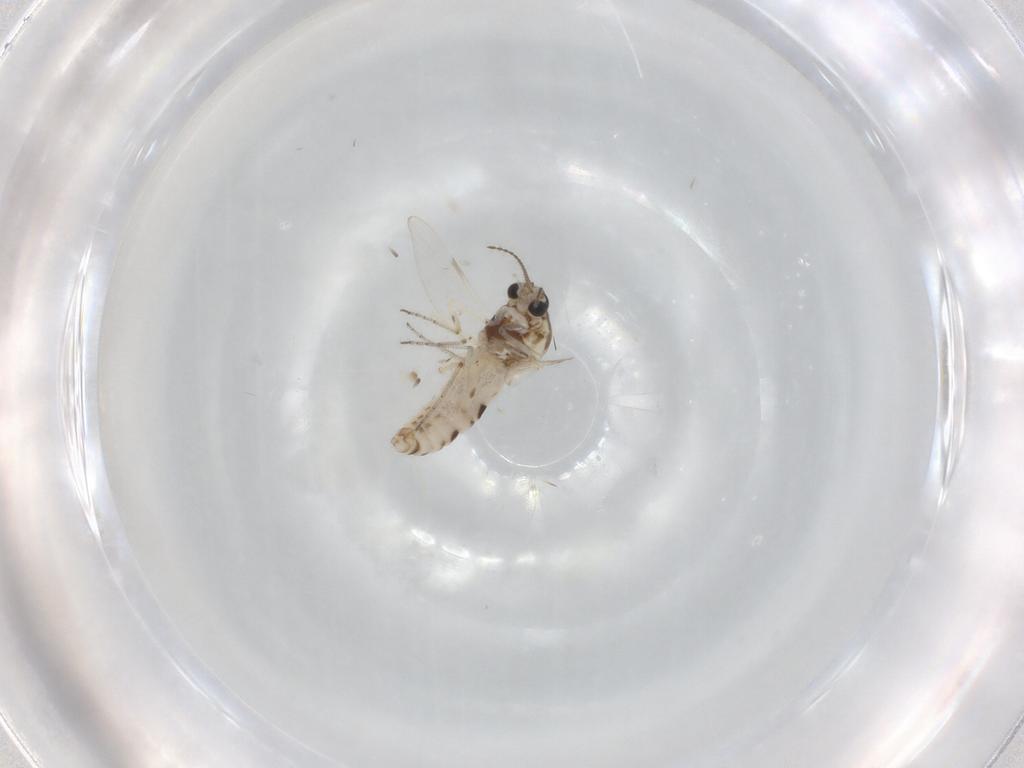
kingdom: Animalia
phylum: Arthropoda
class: Insecta
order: Diptera
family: Ceratopogonidae
